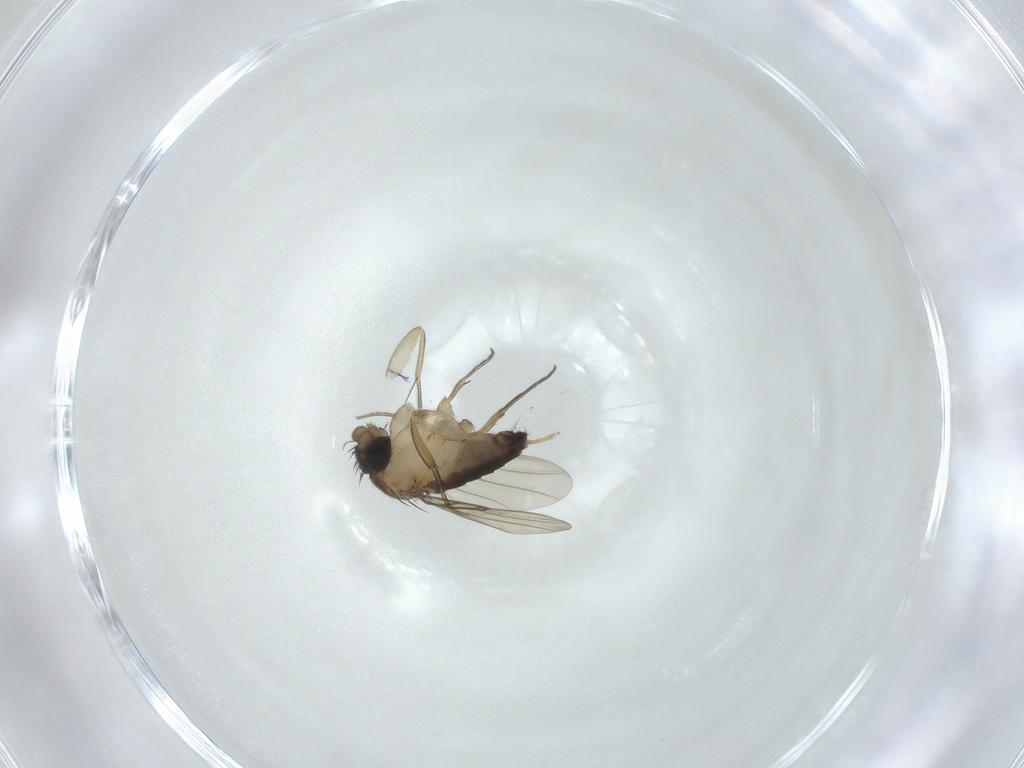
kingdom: Animalia
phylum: Arthropoda
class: Insecta
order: Diptera
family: Phoridae
